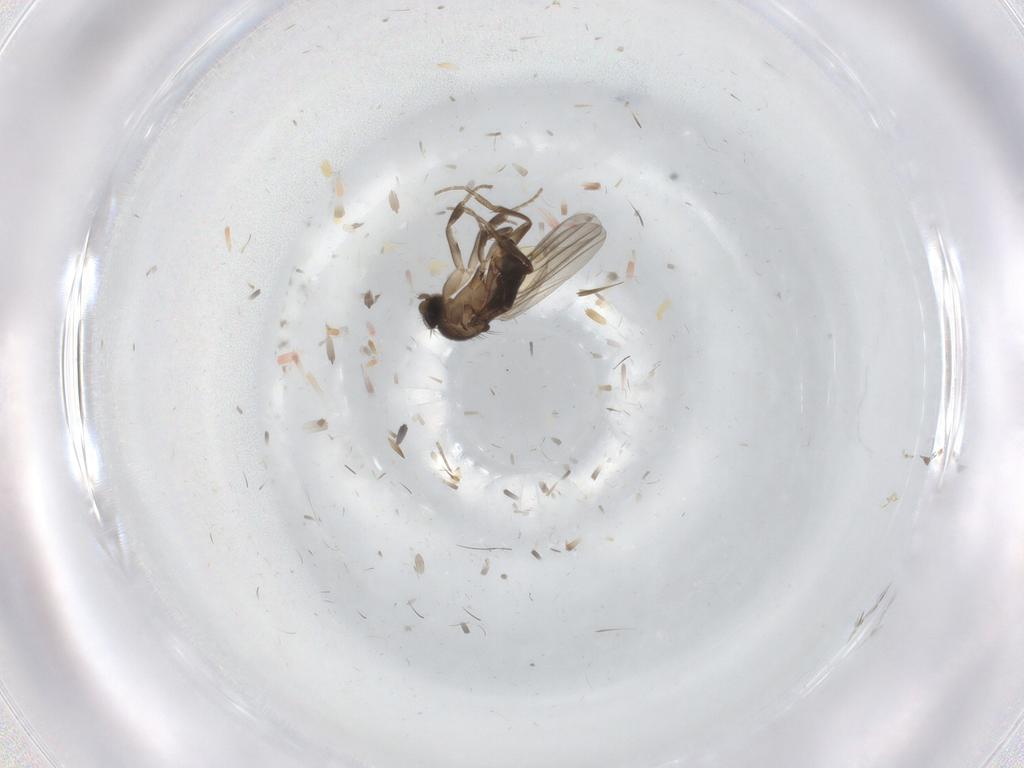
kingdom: Animalia
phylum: Arthropoda
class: Insecta
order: Diptera
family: Phoridae
